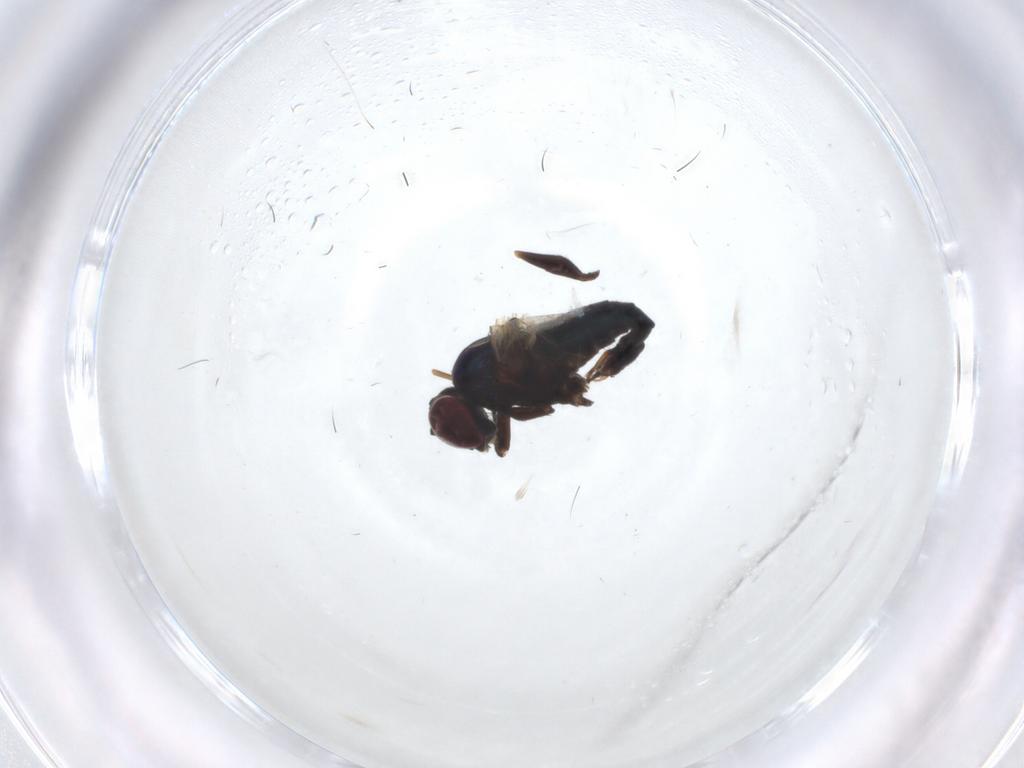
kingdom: Animalia
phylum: Arthropoda
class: Insecta
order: Diptera
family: Dolichopodidae
